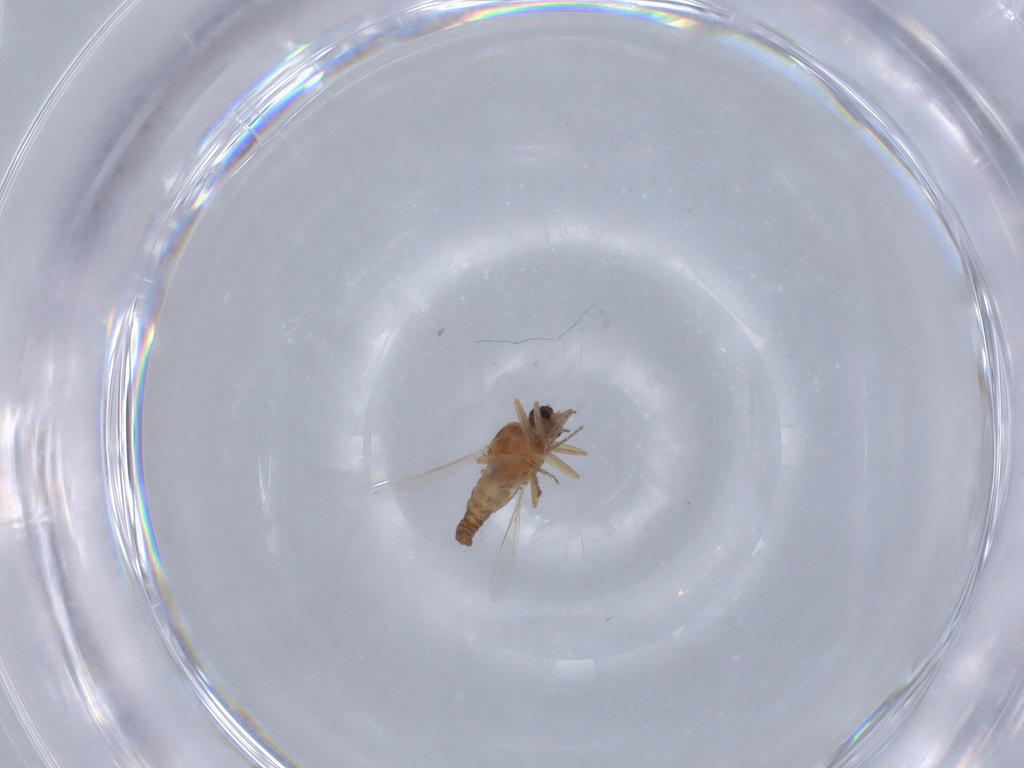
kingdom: Animalia
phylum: Arthropoda
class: Insecta
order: Diptera
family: Ceratopogonidae
